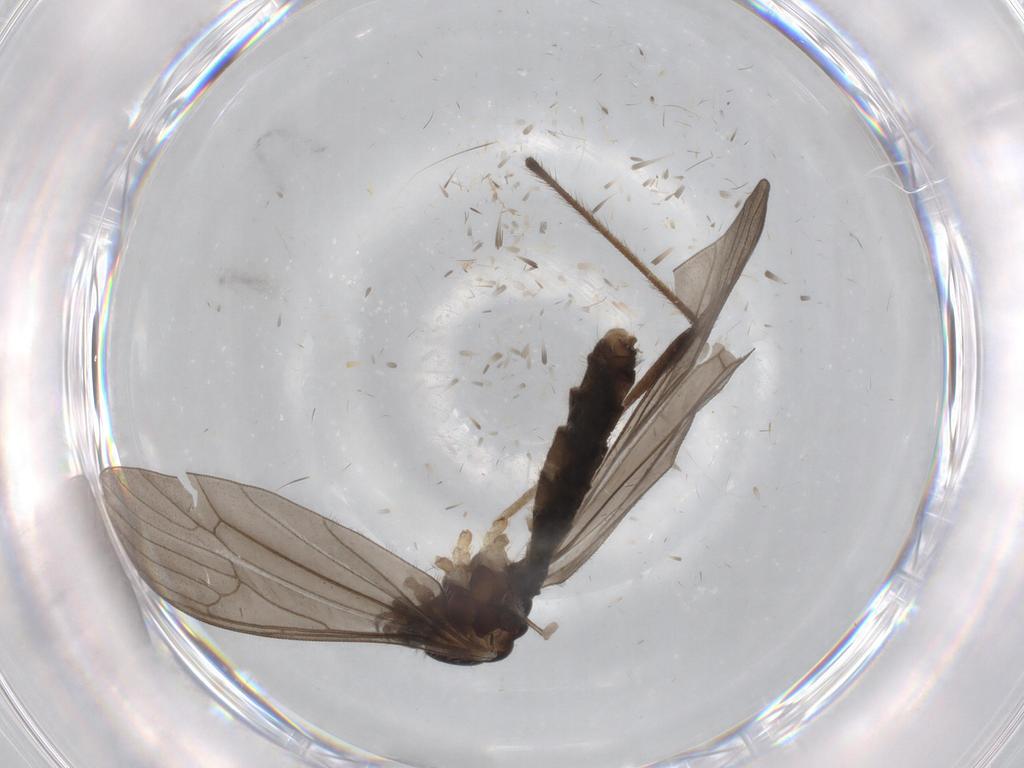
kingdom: Animalia
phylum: Arthropoda
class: Insecta
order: Diptera
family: Limoniidae
